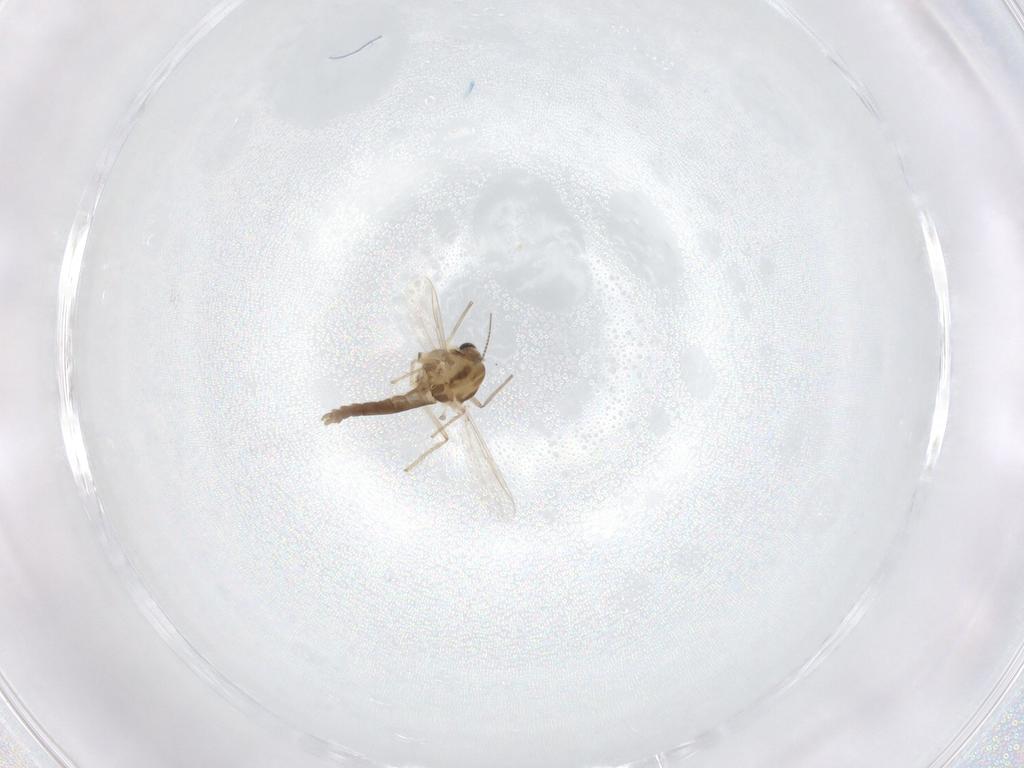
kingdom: Animalia
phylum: Arthropoda
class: Insecta
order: Diptera
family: Chironomidae
